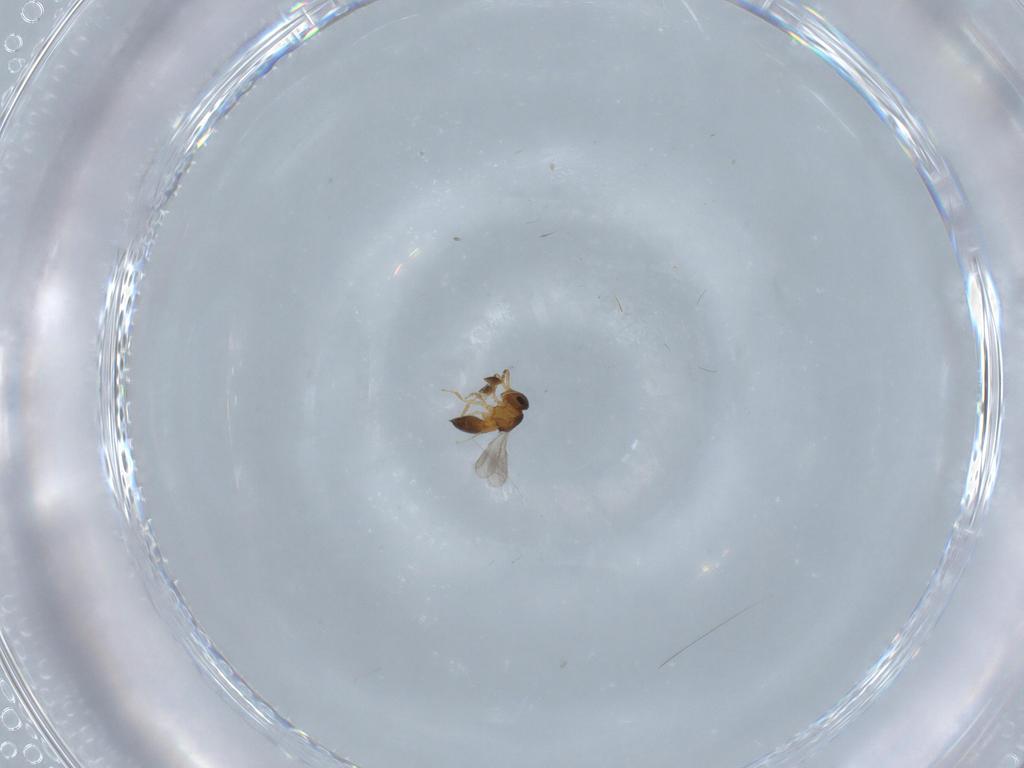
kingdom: Animalia
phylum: Arthropoda
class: Insecta
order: Hymenoptera
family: Scelionidae
